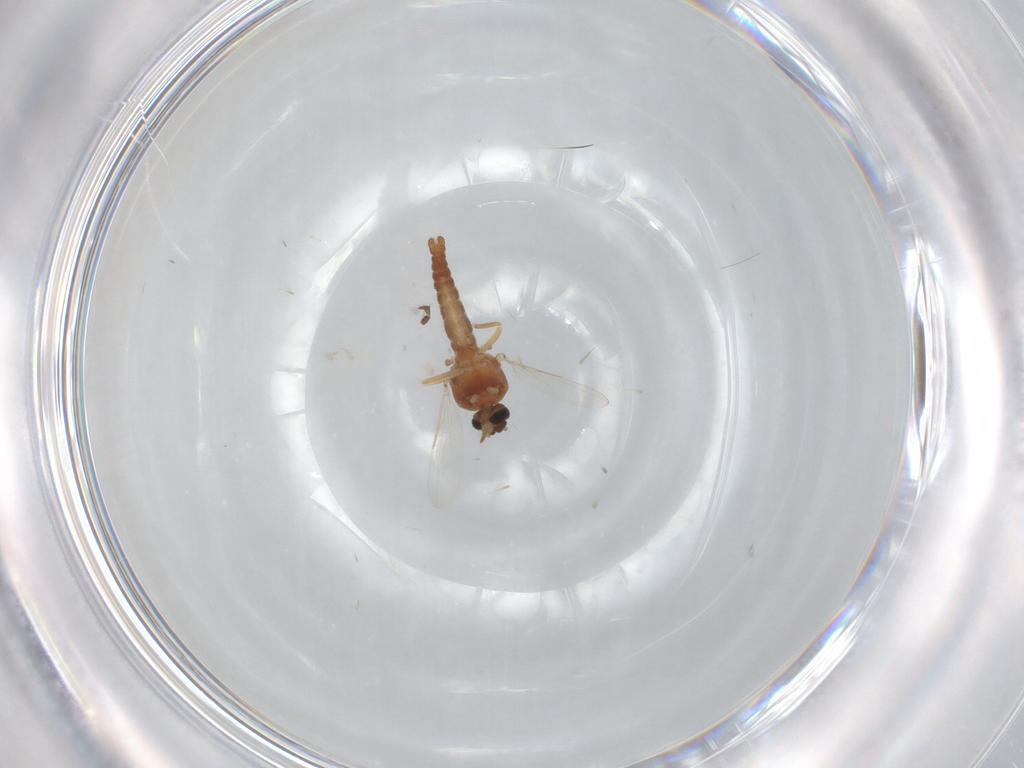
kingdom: Animalia
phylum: Arthropoda
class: Insecta
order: Diptera
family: Ceratopogonidae
